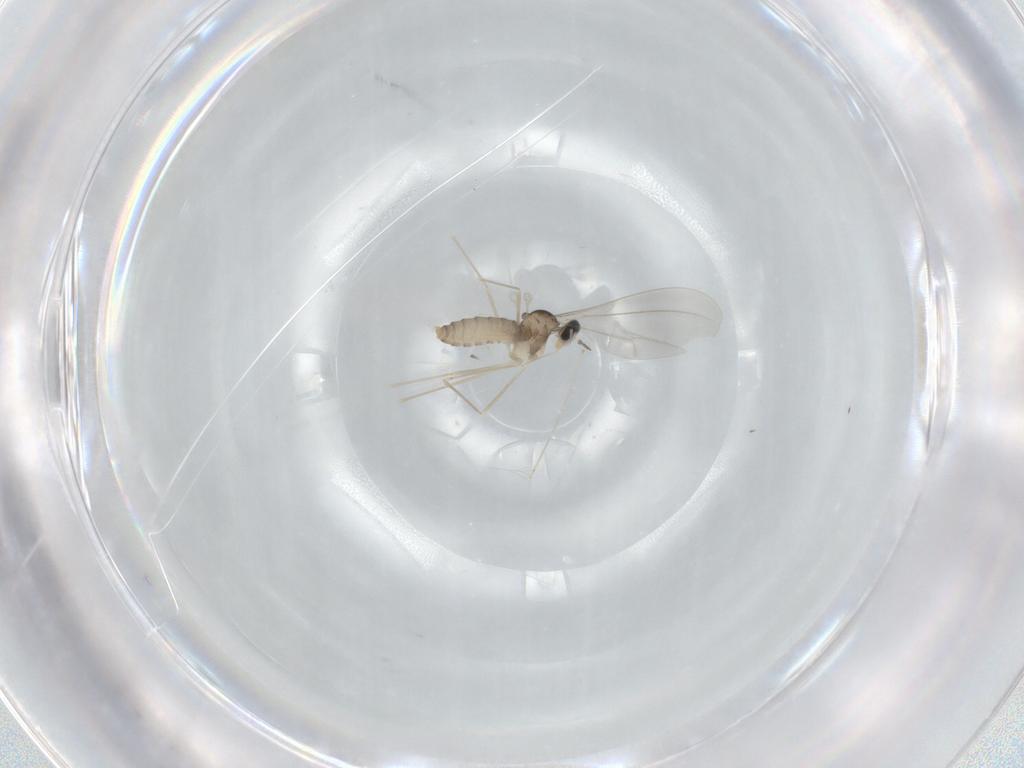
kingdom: Animalia
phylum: Arthropoda
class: Insecta
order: Diptera
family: Cecidomyiidae
